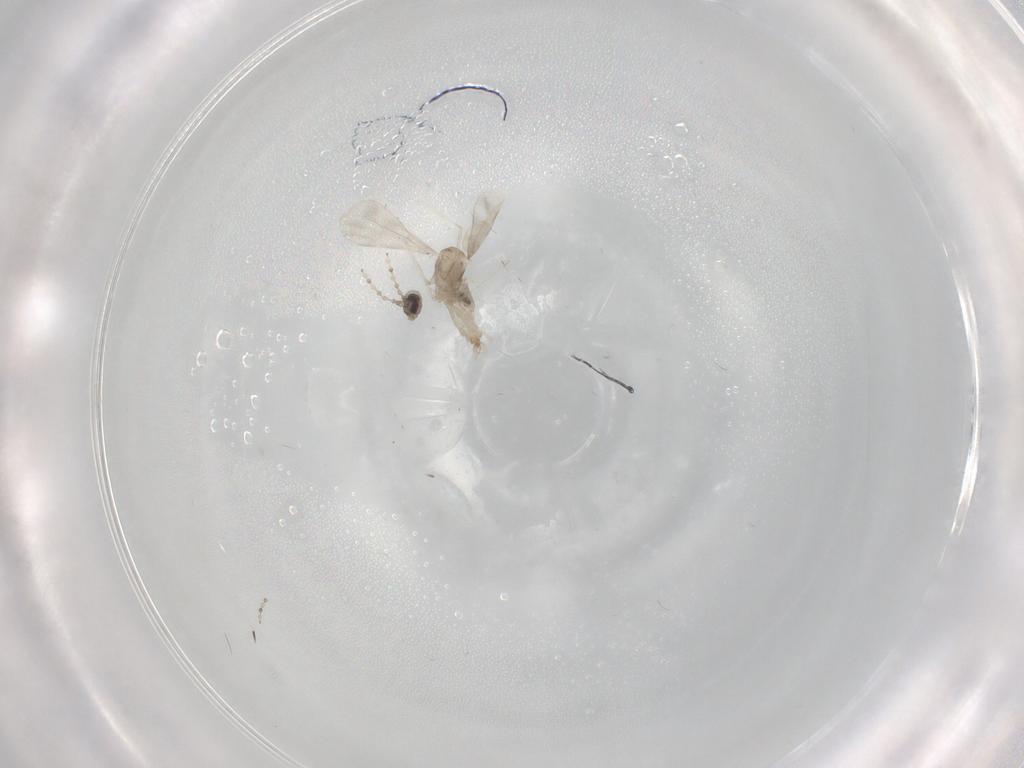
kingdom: Animalia
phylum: Arthropoda
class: Insecta
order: Diptera
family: Cecidomyiidae
